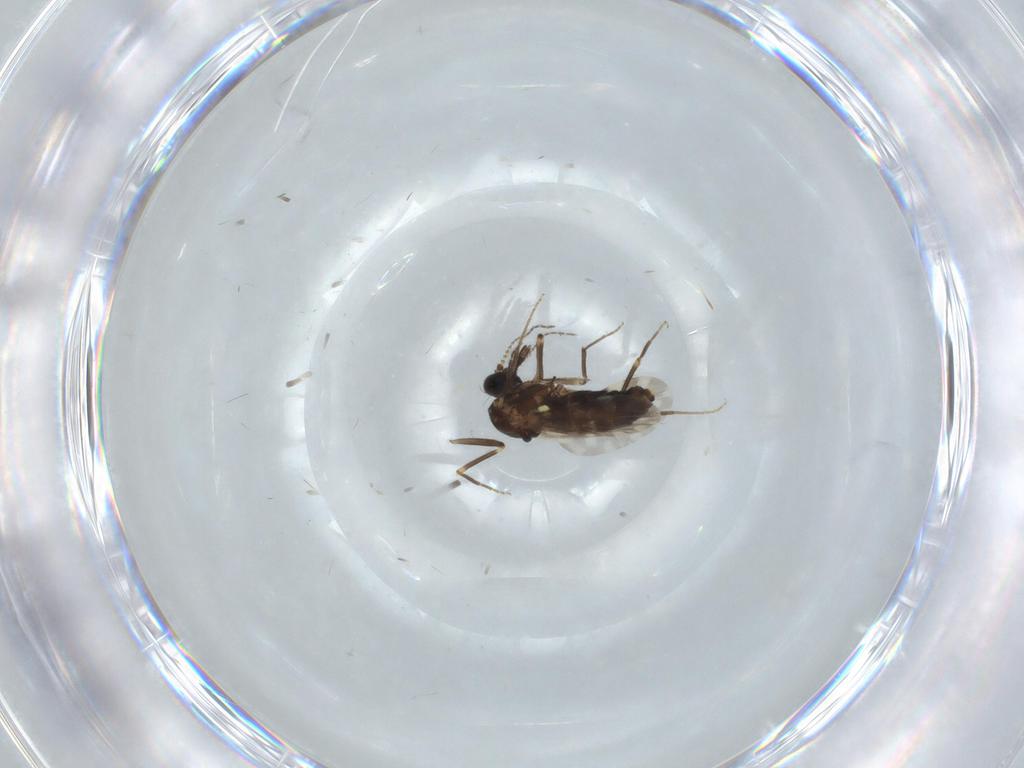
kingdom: Animalia
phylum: Arthropoda
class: Insecta
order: Diptera
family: Ceratopogonidae
